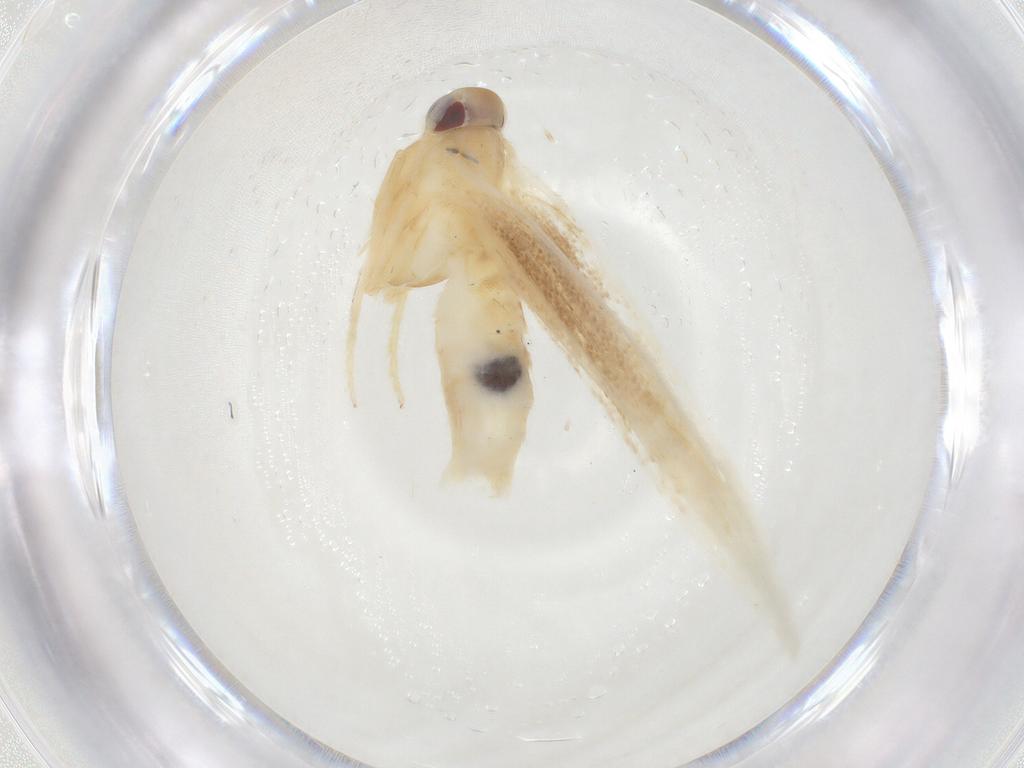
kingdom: Animalia
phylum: Arthropoda
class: Insecta
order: Lepidoptera
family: Cosmopterigidae
